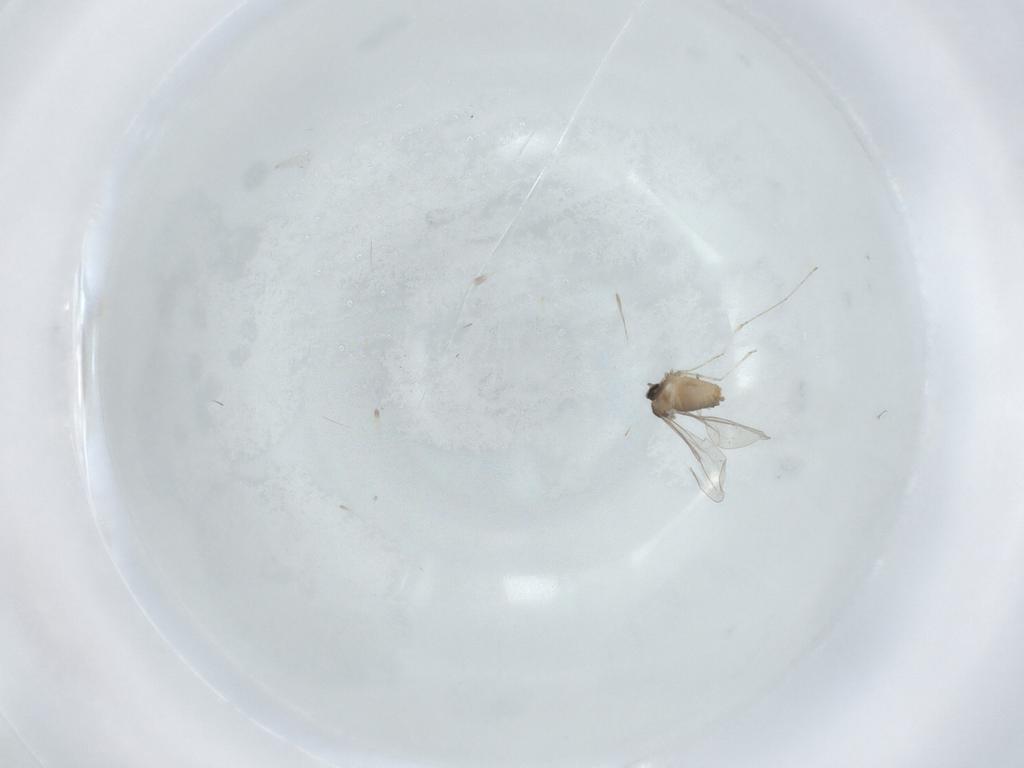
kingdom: Animalia
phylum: Arthropoda
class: Insecta
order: Diptera
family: Cecidomyiidae
